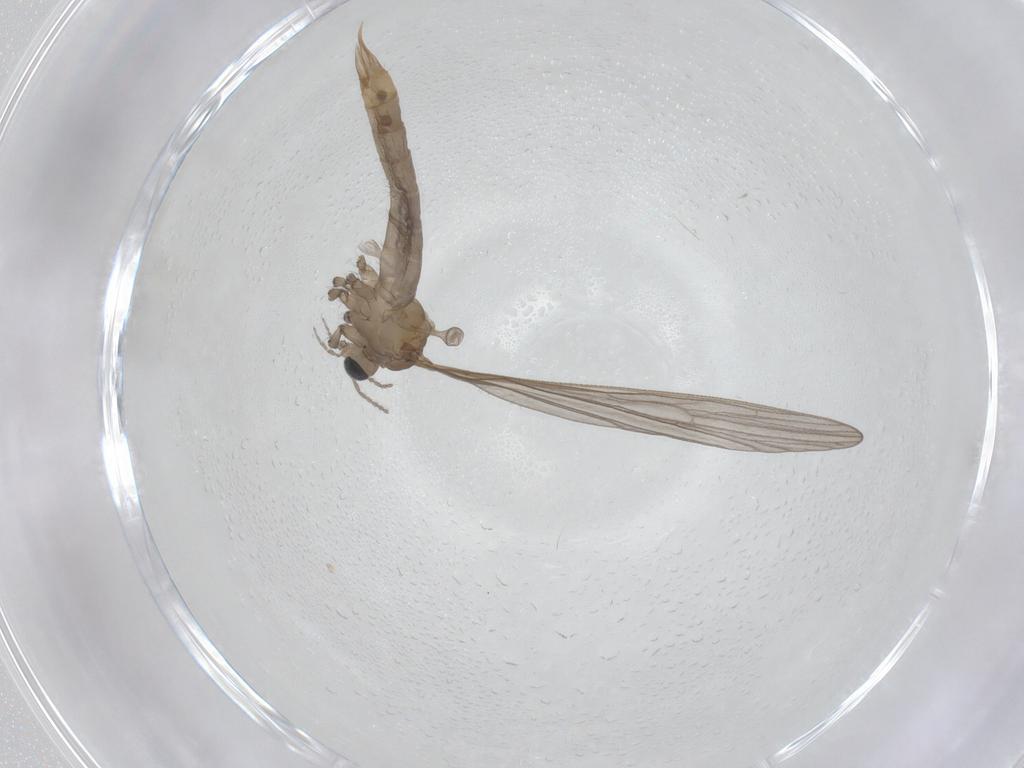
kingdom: Animalia
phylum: Arthropoda
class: Insecta
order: Diptera
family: Limoniidae
